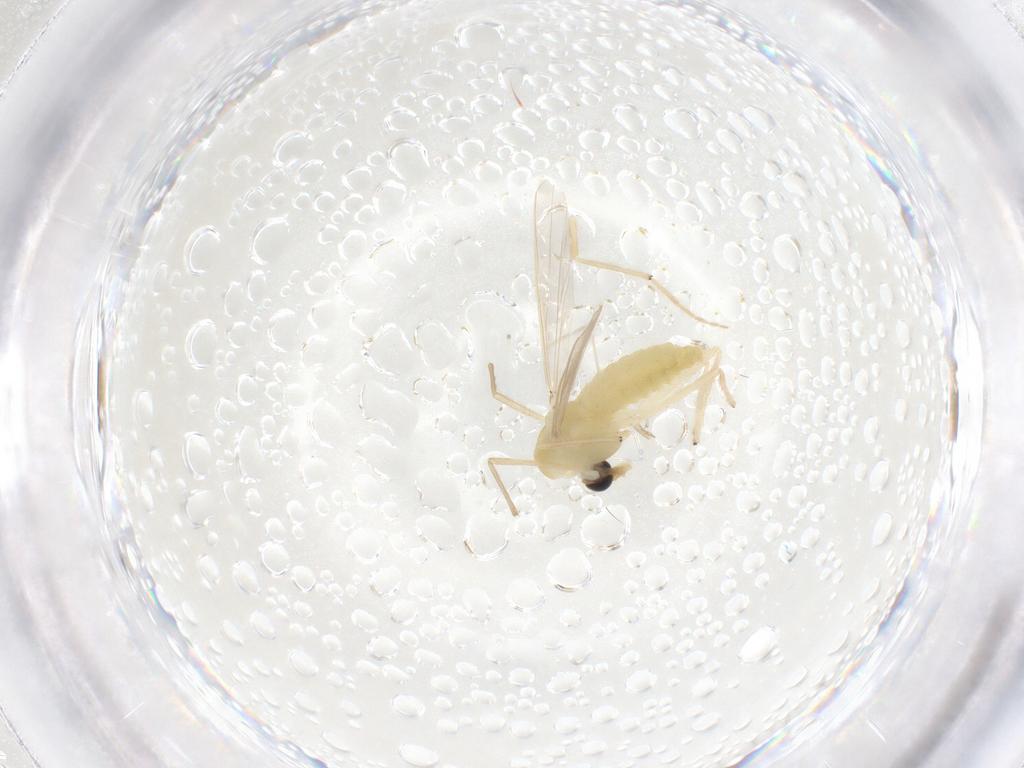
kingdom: Animalia
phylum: Arthropoda
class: Insecta
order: Diptera
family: Chironomidae
